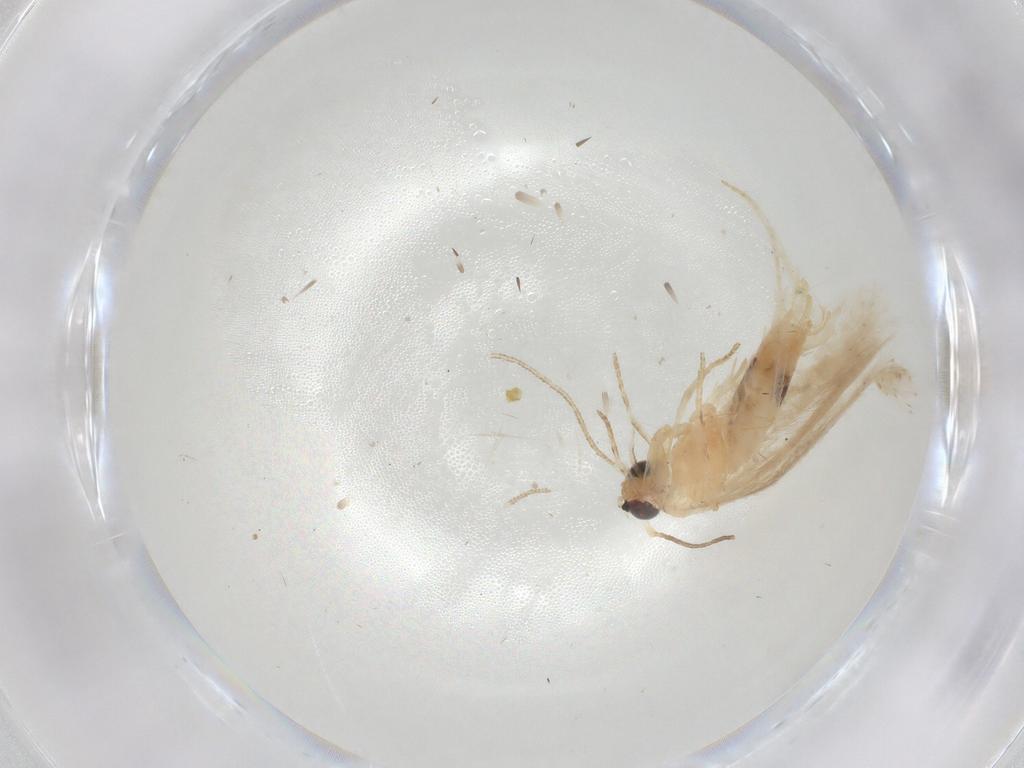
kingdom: Animalia
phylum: Arthropoda
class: Insecta
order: Lepidoptera
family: Gelechiidae
